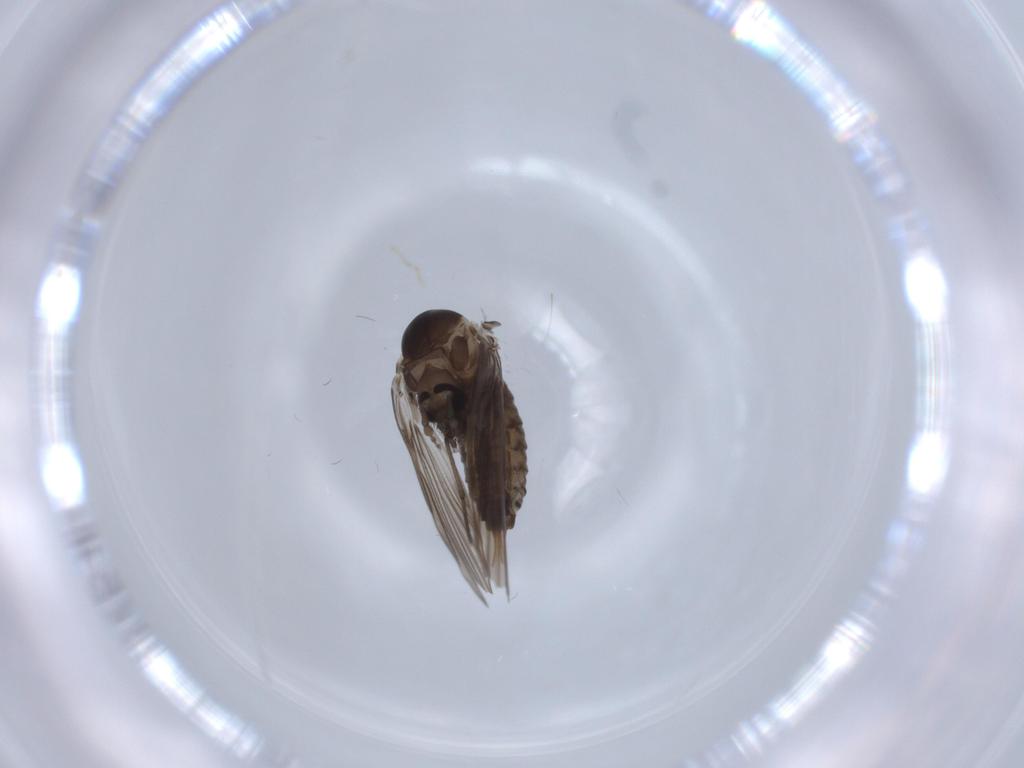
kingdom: Animalia
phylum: Arthropoda
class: Insecta
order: Diptera
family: Psychodidae
